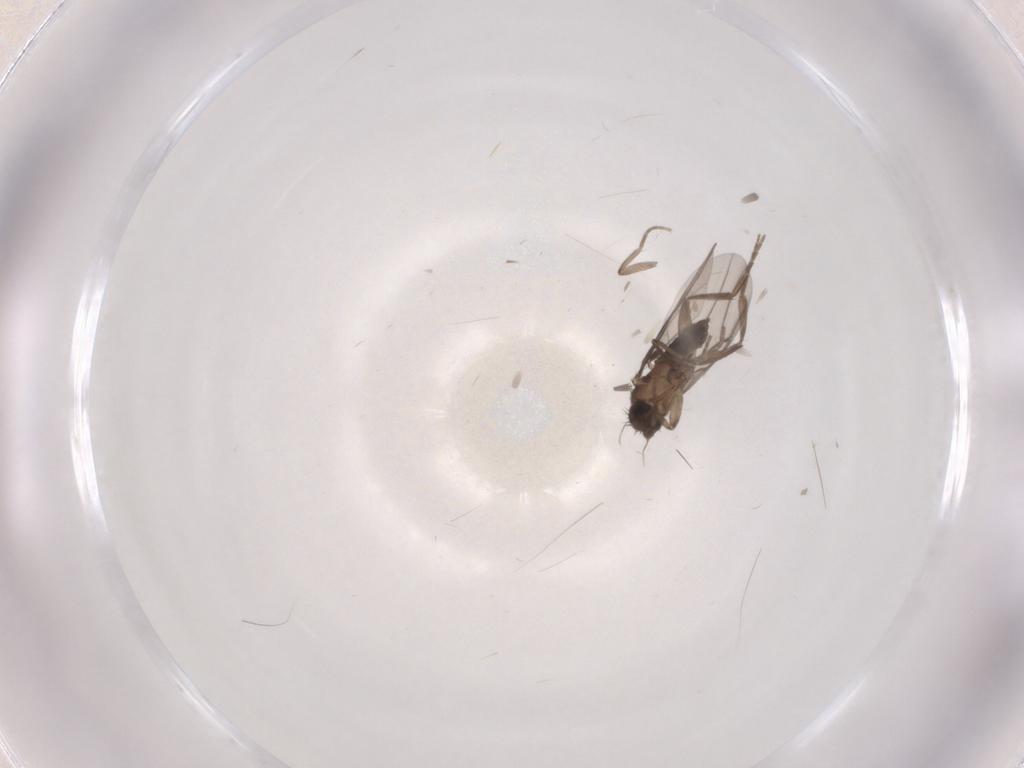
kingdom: Animalia
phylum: Arthropoda
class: Insecta
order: Diptera
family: Phoridae
